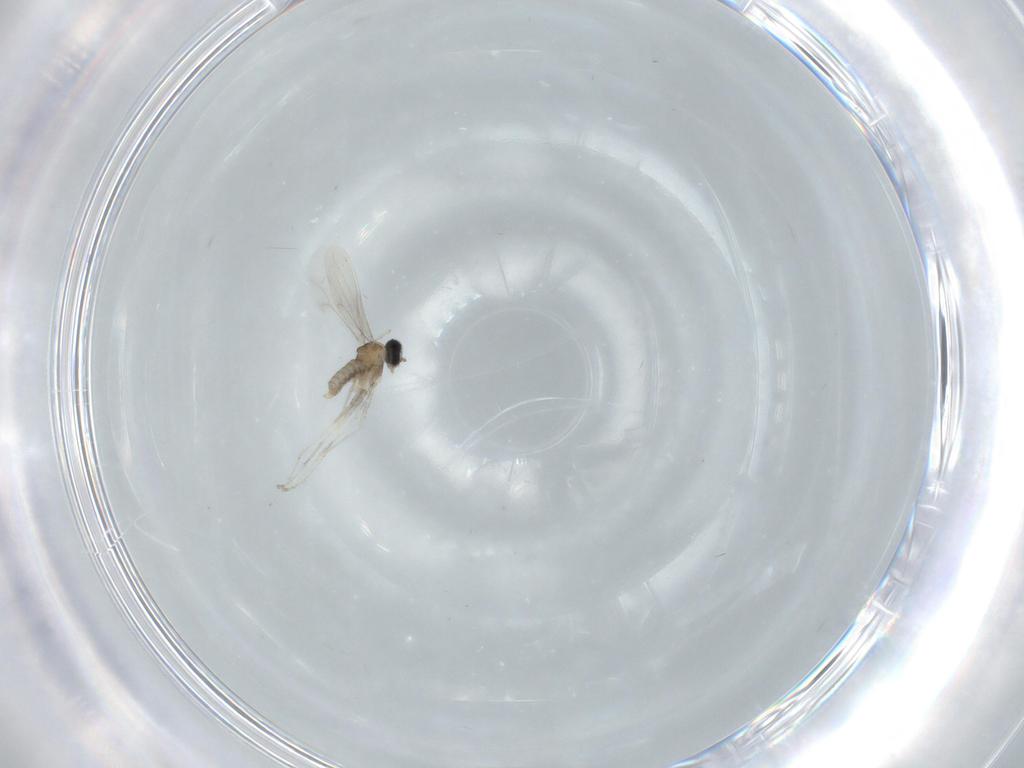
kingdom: Animalia
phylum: Arthropoda
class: Insecta
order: Diptera
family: Cecidomyiidae
